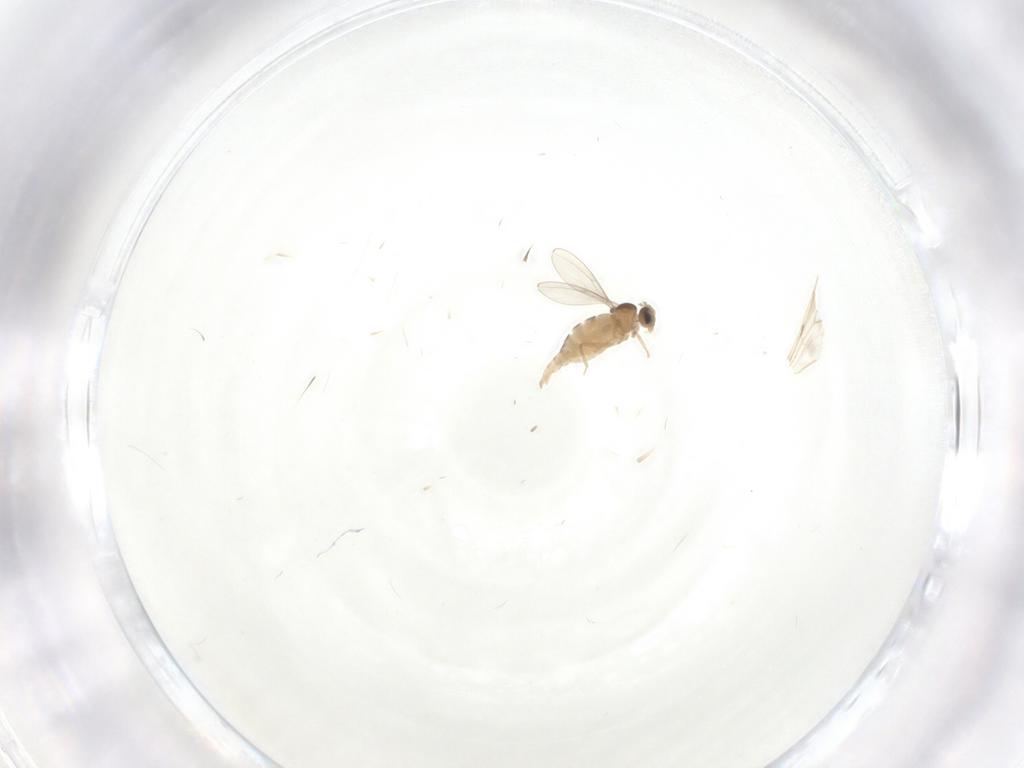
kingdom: Animalia
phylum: Arthropoda
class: Insecta
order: Diptera
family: Cecidomyiidae
